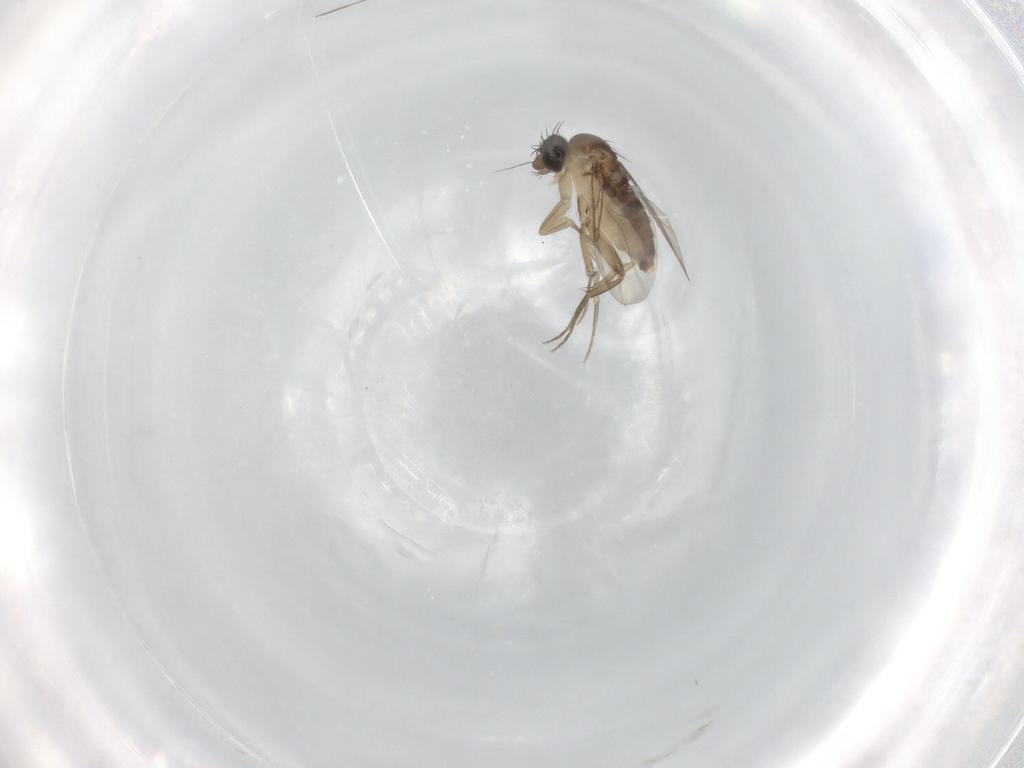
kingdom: Animalia
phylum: Arthropoda
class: Insecta
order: Diptera
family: Phoridae
